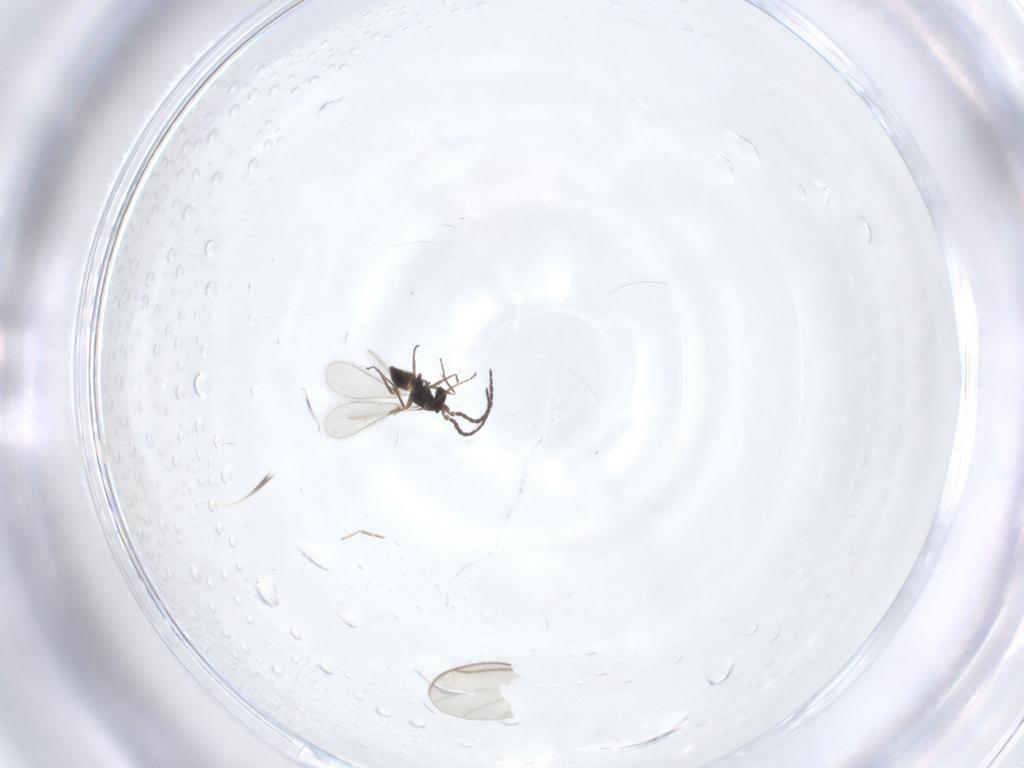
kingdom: Animalia
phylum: Arthropoda
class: Insecta
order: Hymenoptera
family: Mymaridae
